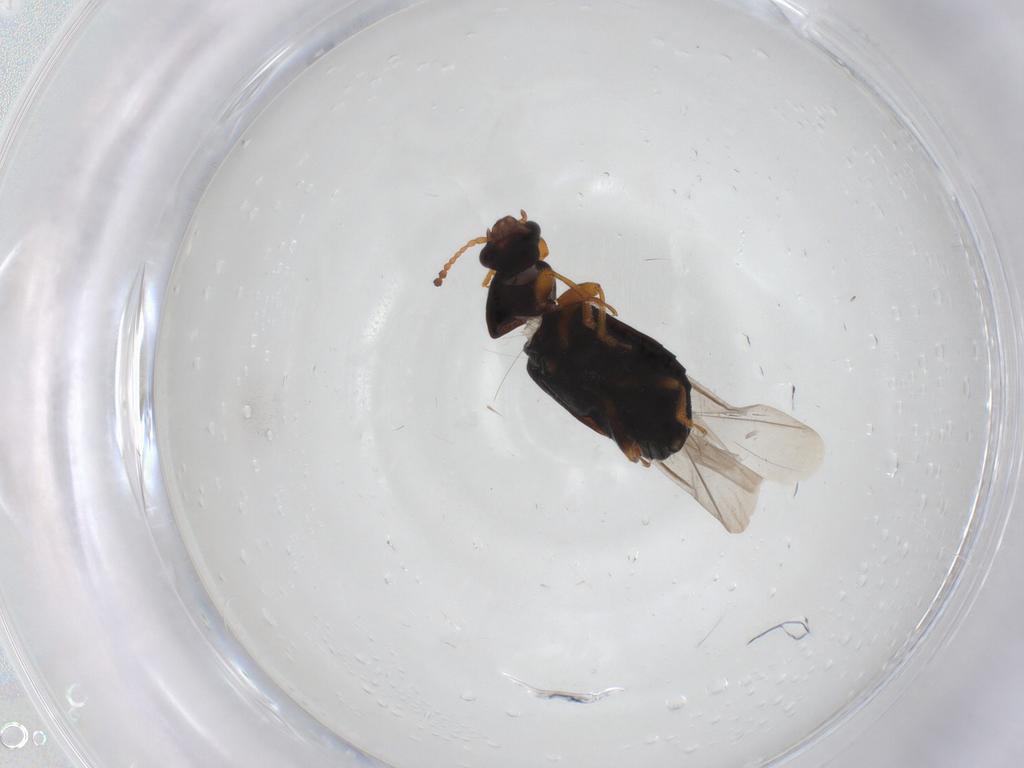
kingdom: Animalia
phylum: Arthropoda
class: Insecta
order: Coleoptera
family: Staphylinidae
